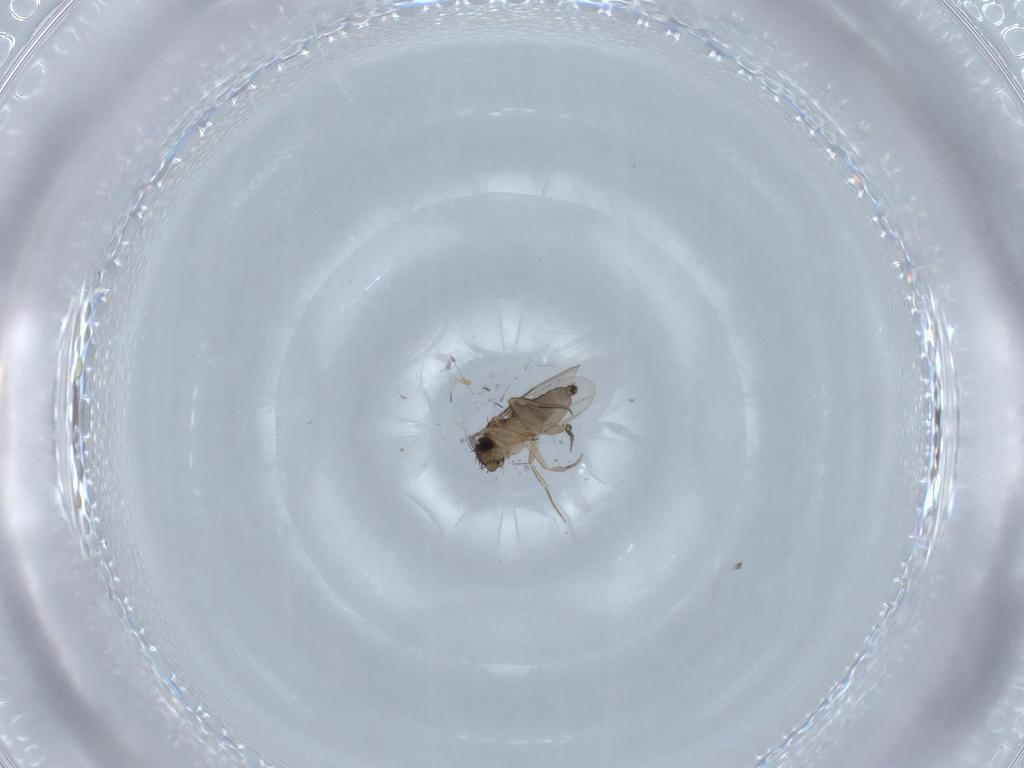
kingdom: Animalia
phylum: Arthropoda
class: Insecta
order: Diptera
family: Phoridae
